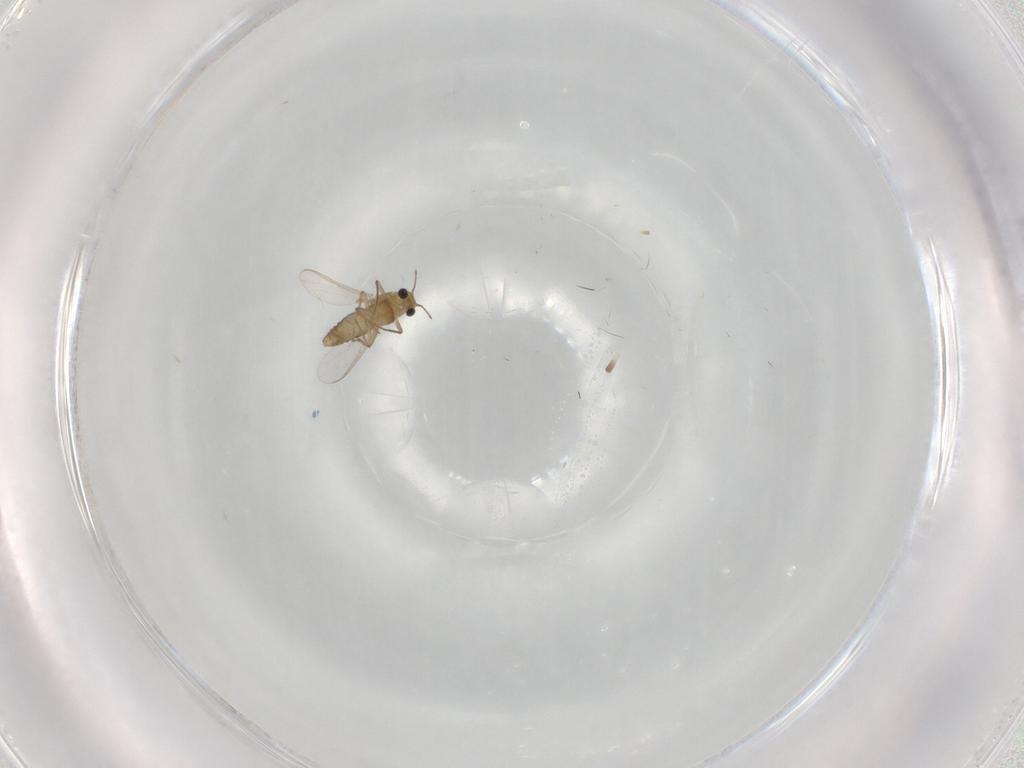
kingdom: Animalia
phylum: Arthropoda
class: Insecta
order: Diptera
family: Chironomidae
